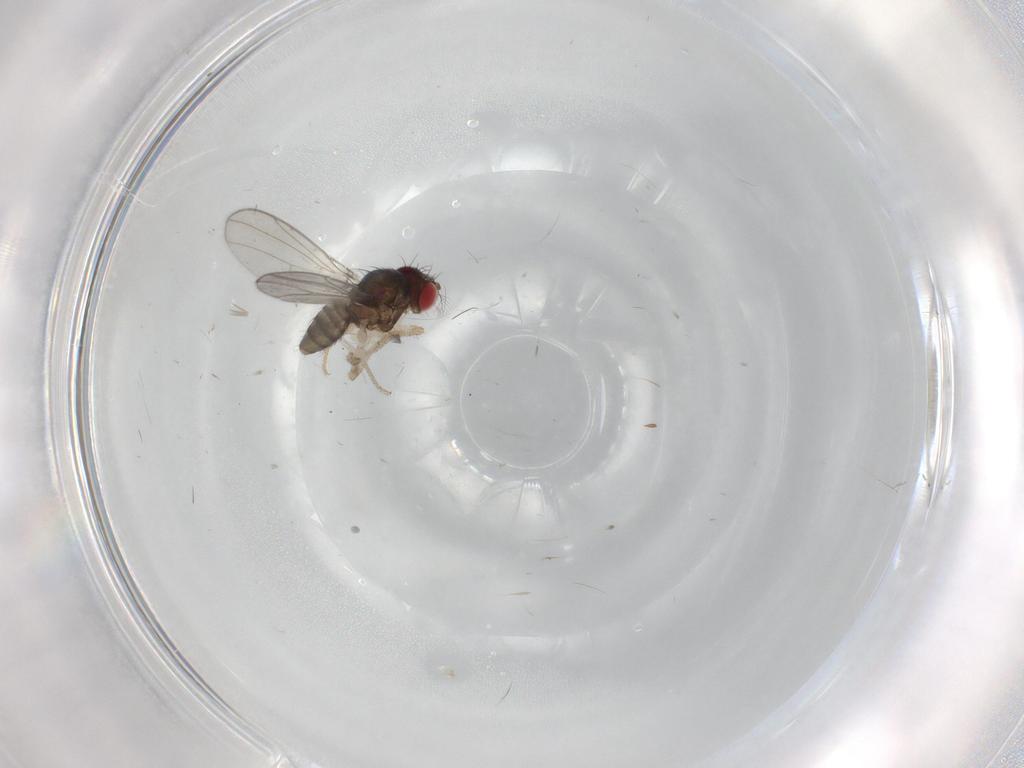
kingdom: Animalia
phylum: Arthropoda
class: Insecta
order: Diptera
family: Drosophilidae
